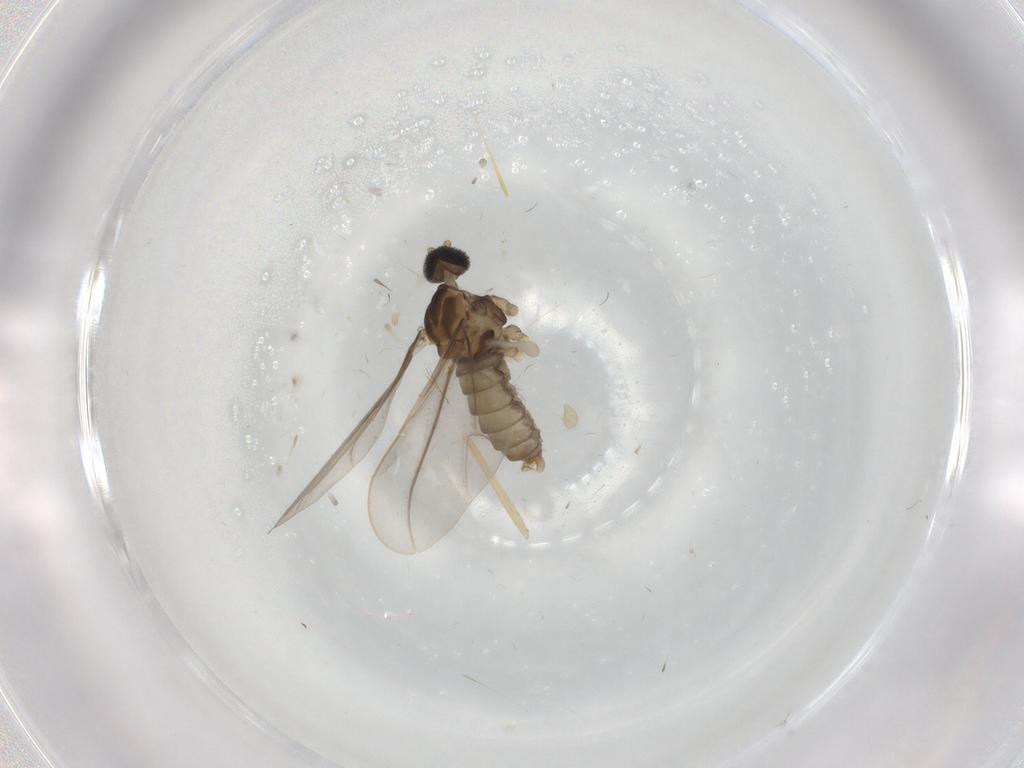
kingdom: Animalia
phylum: Arthropoda
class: Insecta
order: Diptera
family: Cecidomyiidae
